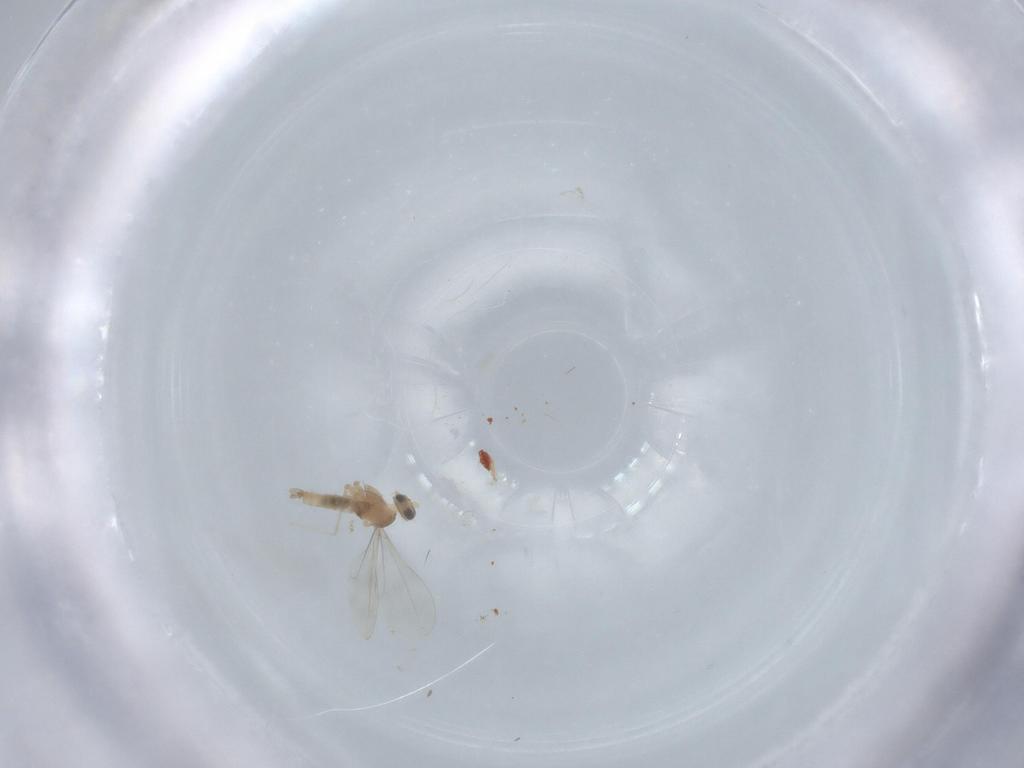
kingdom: Animalia
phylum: Arthropoda
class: Insecta
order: Diptera
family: Cecidomyiidae
